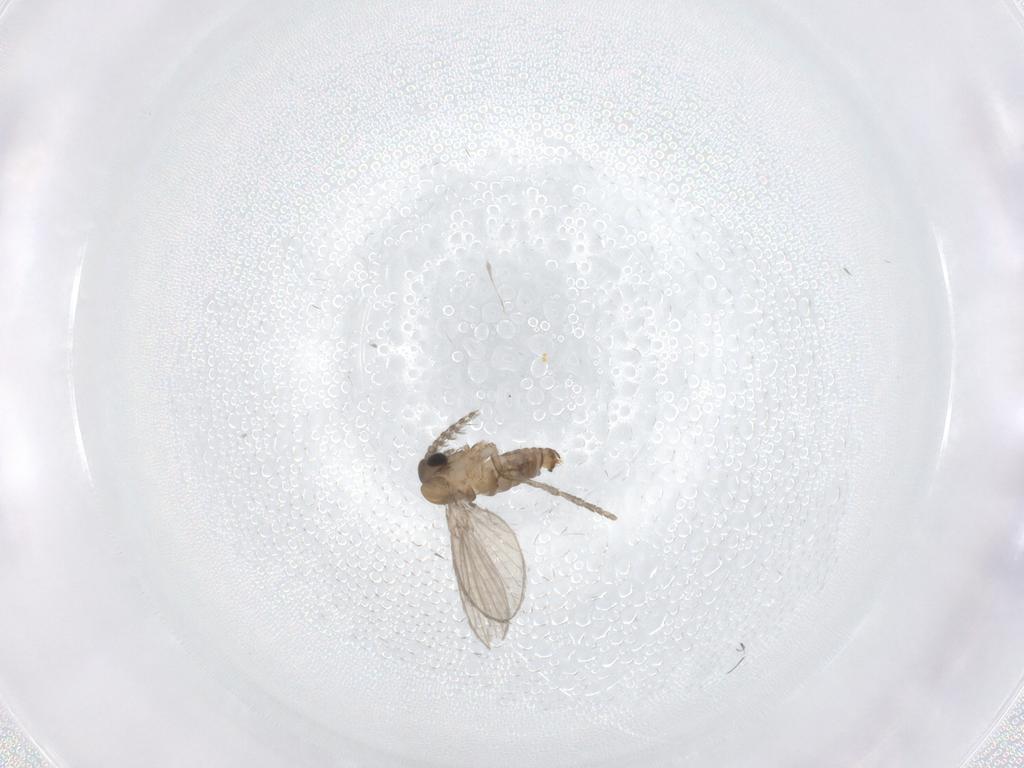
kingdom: Animalia
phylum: Arthropoda
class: Insecta
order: Diptera
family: Psychodidae
